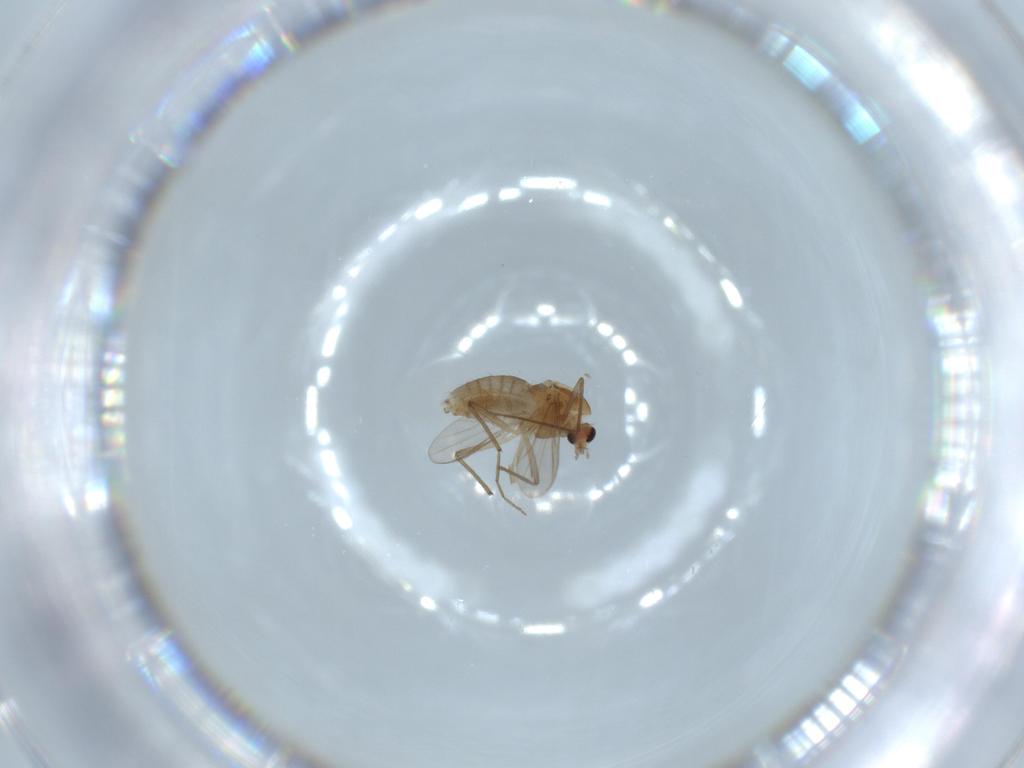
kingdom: Animalia
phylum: Arthropoda
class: Insecta
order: Diptera
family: Chironomidae
